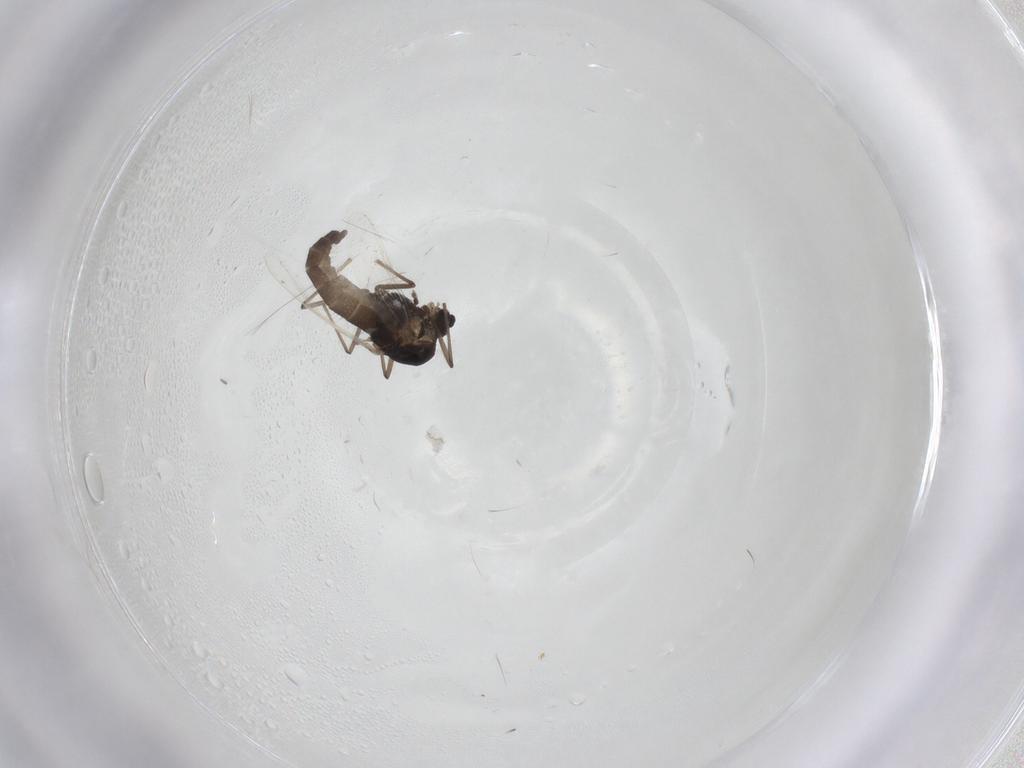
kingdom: Animalia
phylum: Arthropoda
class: Insecta
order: Diptera
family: Chironomidae
